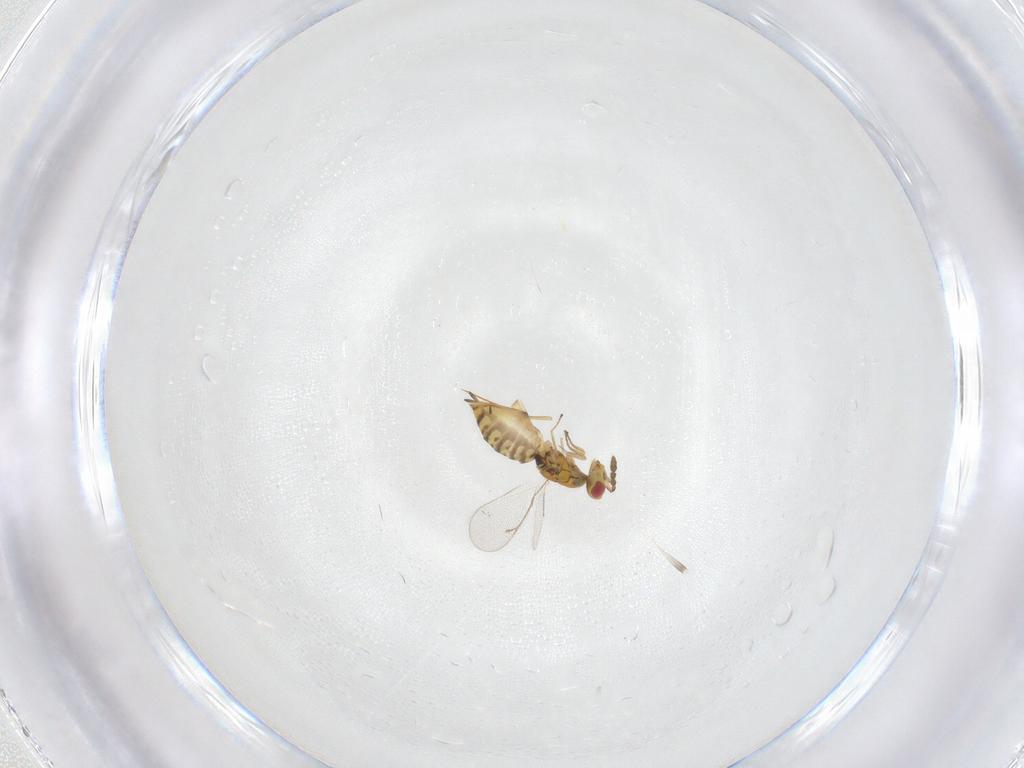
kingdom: Animalia
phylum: Arthropoda
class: Insecta
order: Hymenoptera
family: Eulophidae
